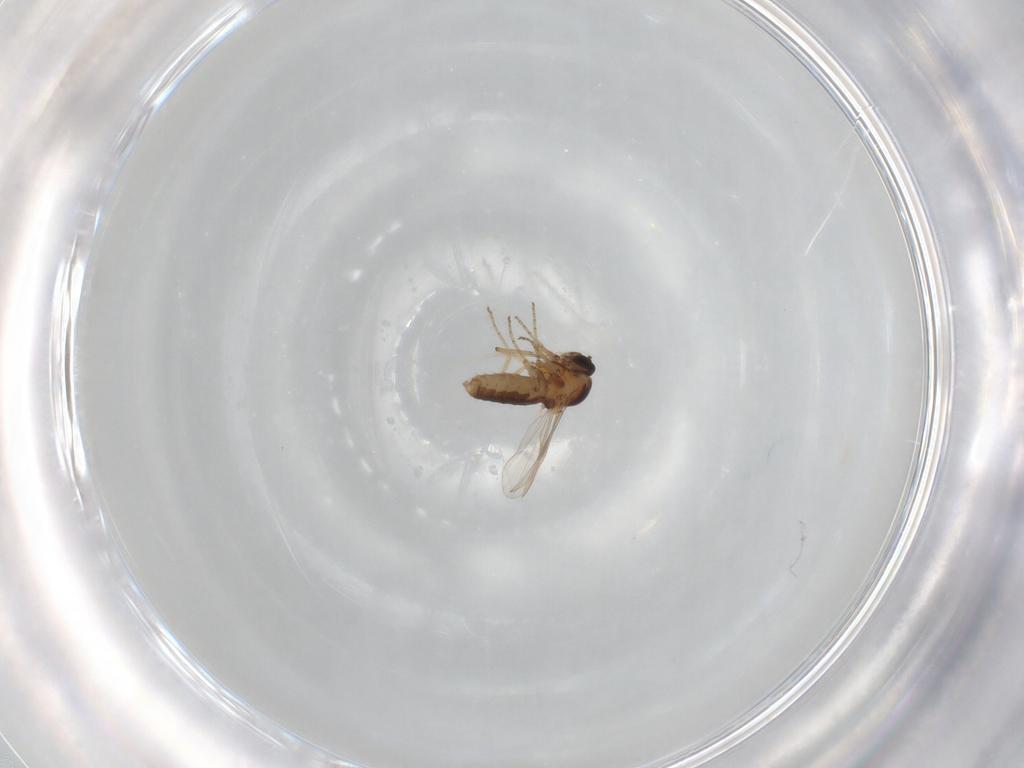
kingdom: Animalia
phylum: Arthropoda
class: Insecta
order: Diptera
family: Ceratopogonidae
